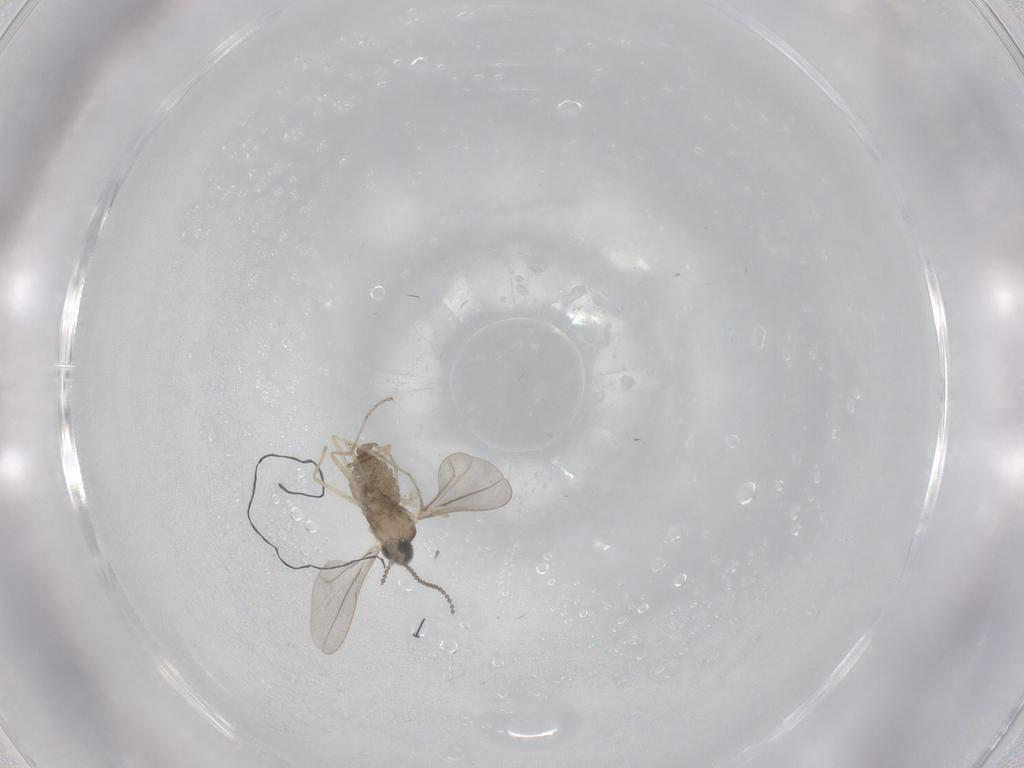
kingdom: Animalia
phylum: Arthropoda
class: Insecta
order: Diptera
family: Cecidomyiidae
